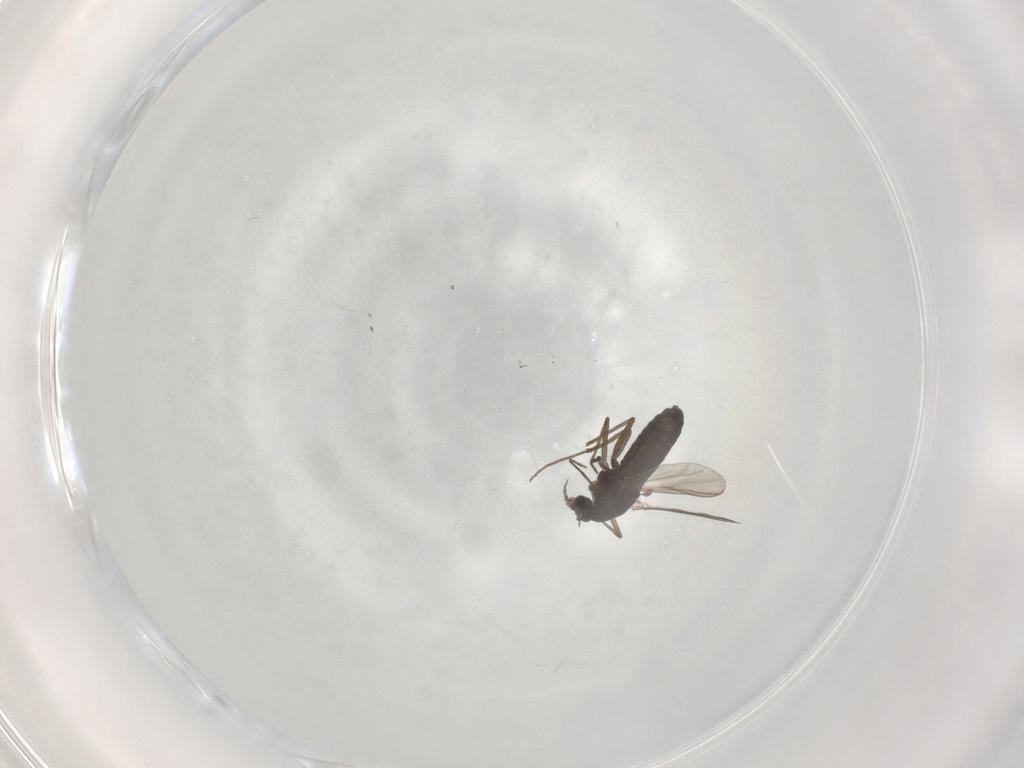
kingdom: Animalia
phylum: Arthropoda
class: Insecta
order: Diptera
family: Chironomidae
